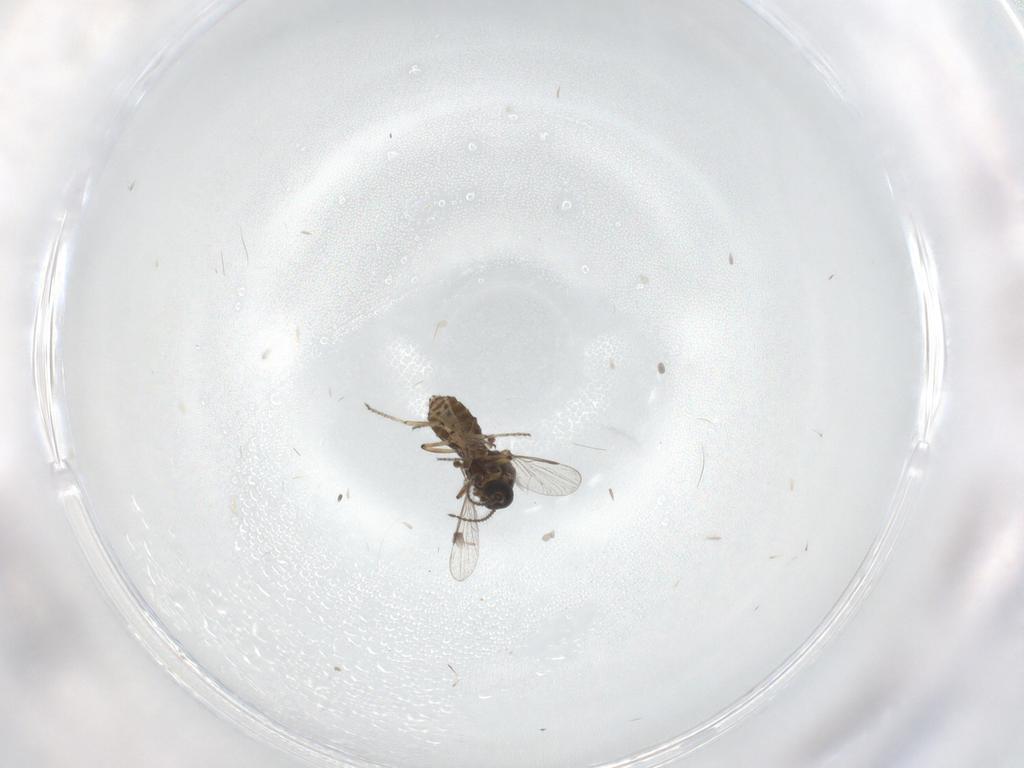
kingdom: Animalia
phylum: Arthropoda
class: Insecta
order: Diptera
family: Ceratopogonidae
